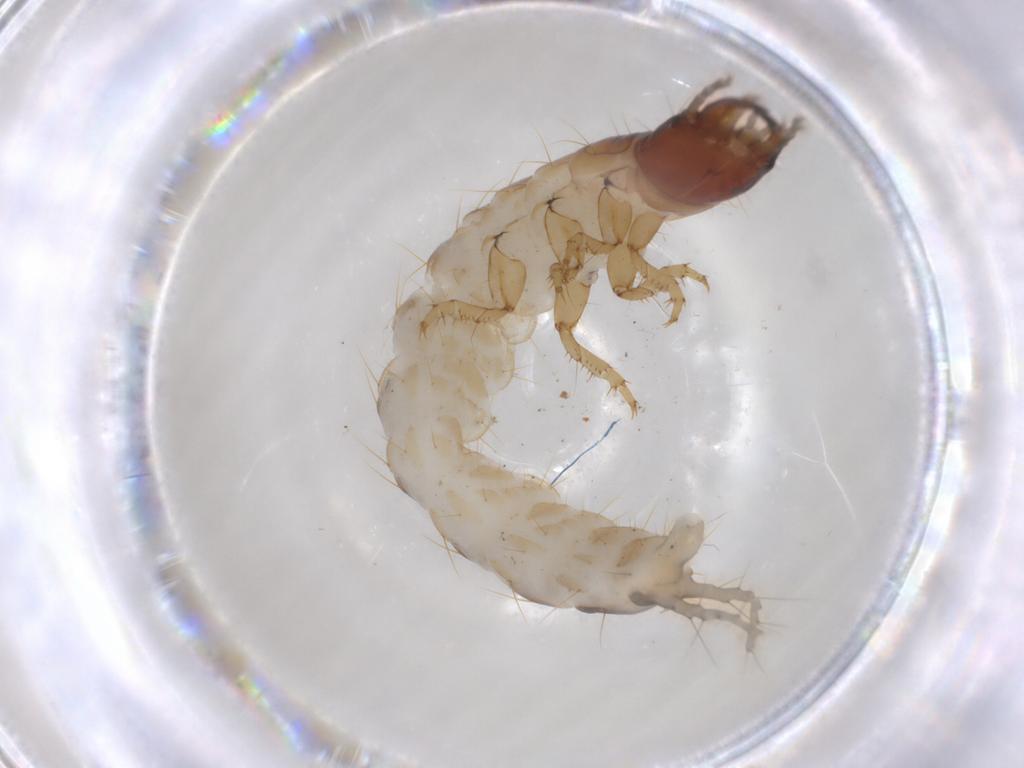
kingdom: Animalia
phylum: Arthropoda
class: Insecta
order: Coleoptera
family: Carabidae
